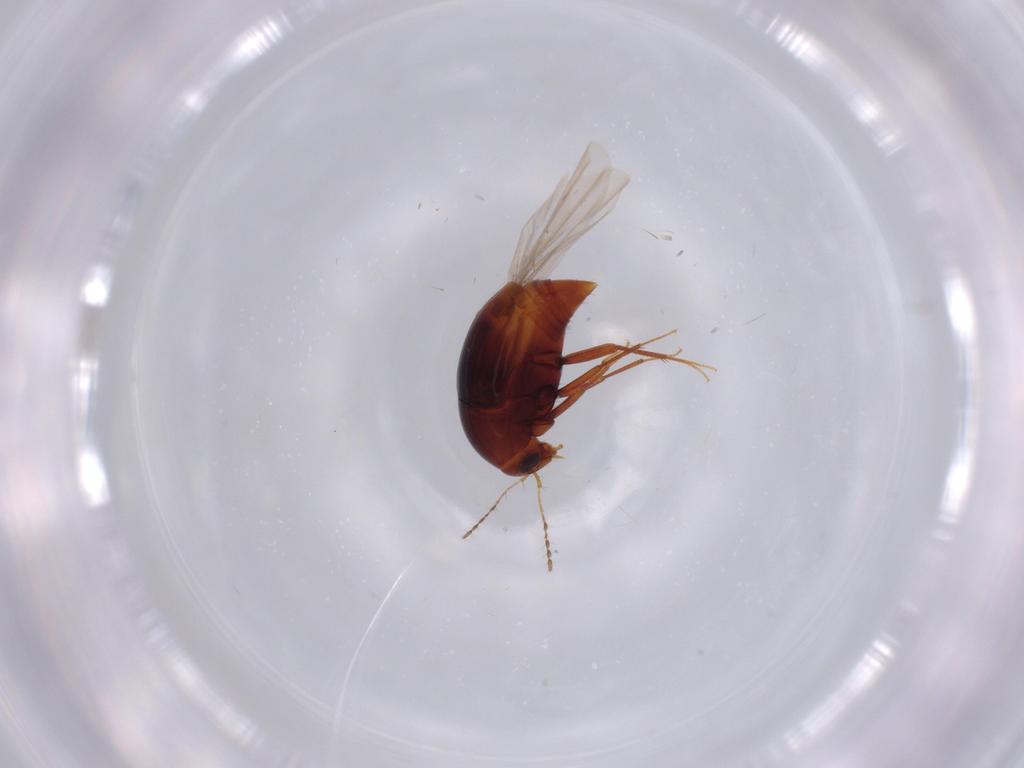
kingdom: Animalia
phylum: Arthropoda
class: Insecta
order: Coleoptera
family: Staphylinidae
